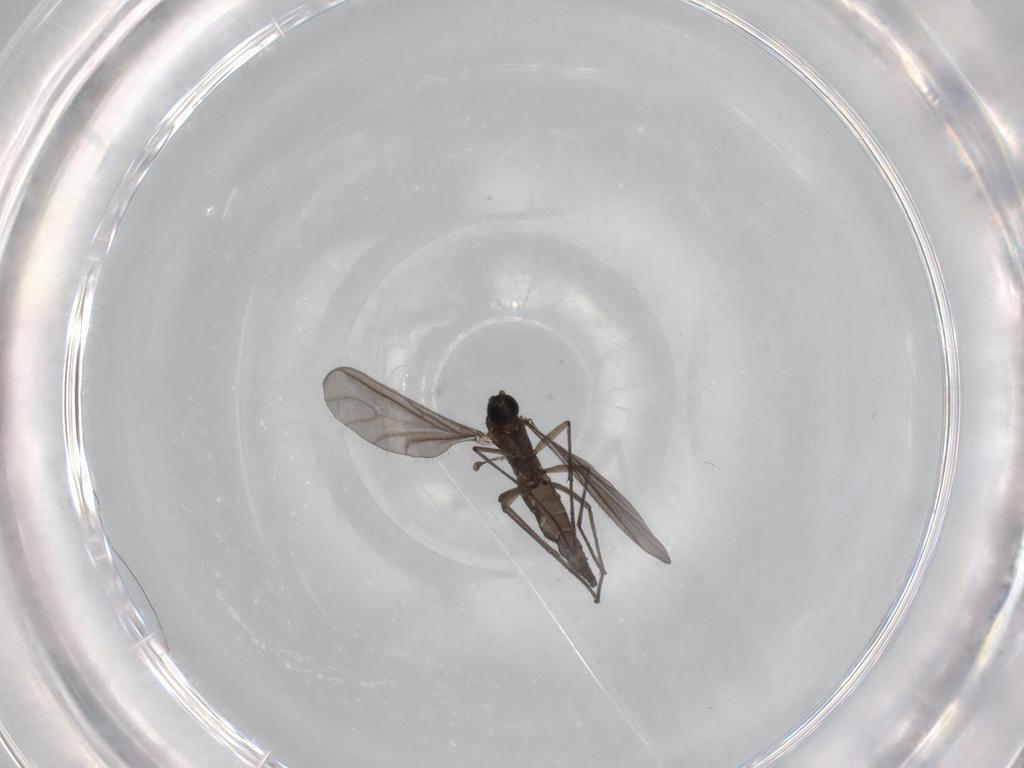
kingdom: Animalia
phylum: Arthropoda
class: Insecta
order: Diptera
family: Sciaridae
